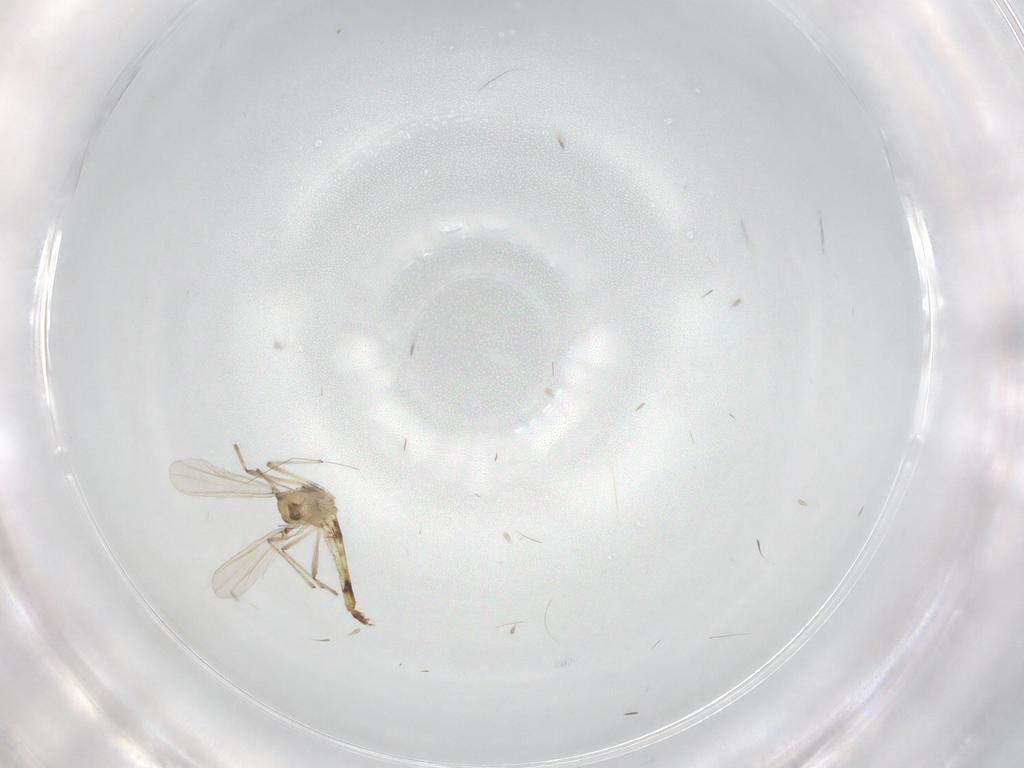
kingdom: Animalia
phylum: Arthropoda
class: Insecta
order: Diptera
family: Chironomidae
